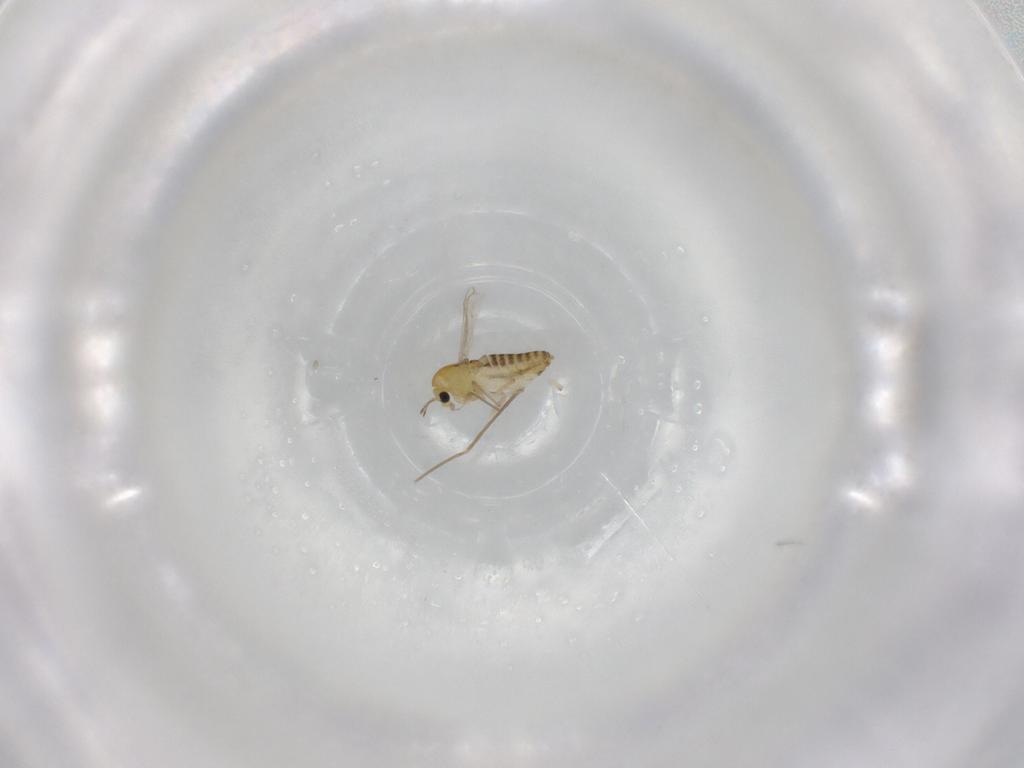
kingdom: Animalia
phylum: Arthropoda
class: Insecta
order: Diptera
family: Chironomidae
